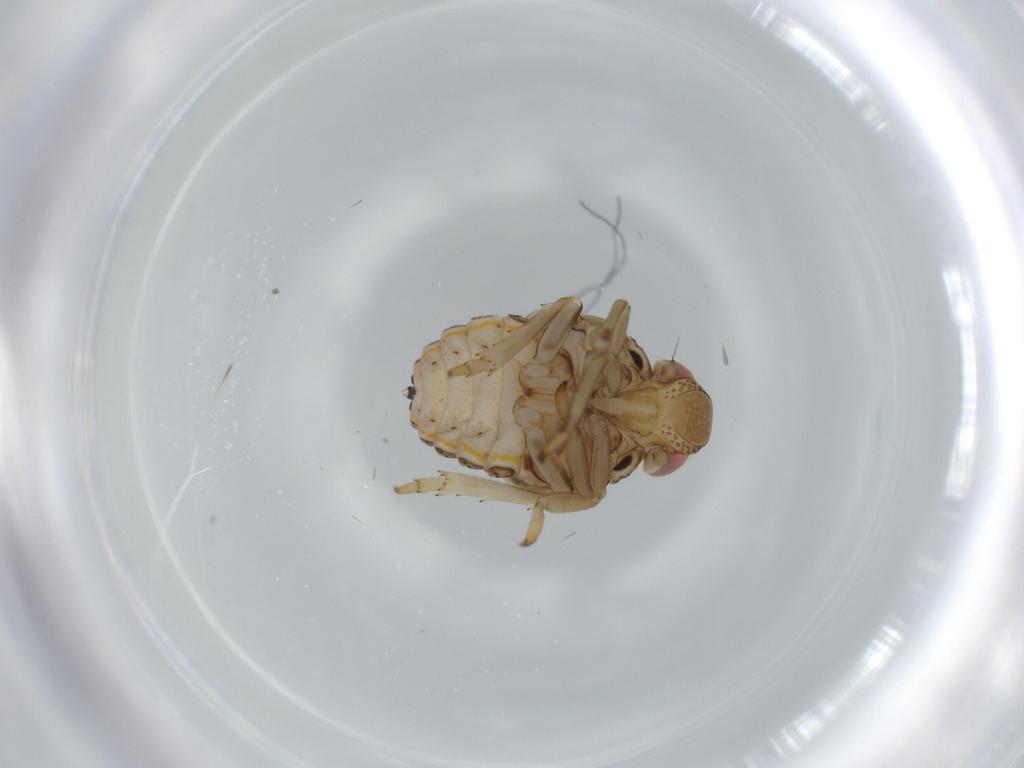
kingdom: Animalia
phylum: Arthropoda
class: Insecta
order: Hemiptera
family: Issidae
